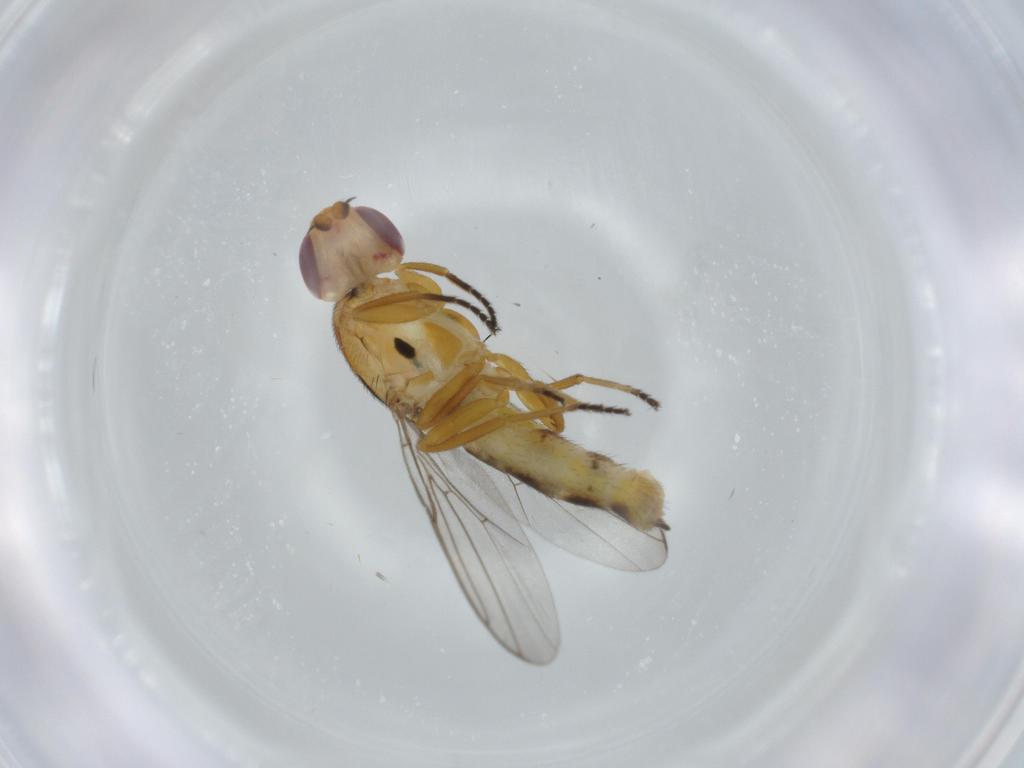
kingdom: Animalia
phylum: Arthropoda
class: Insecta
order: Diptera
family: Cecidomyiidae
